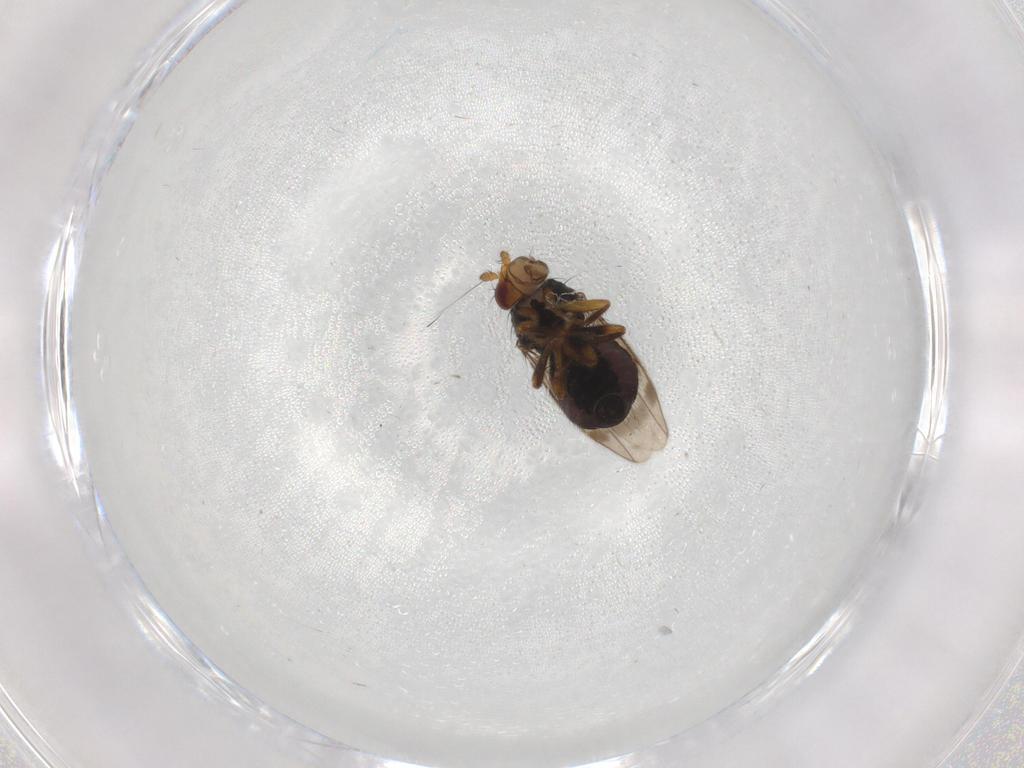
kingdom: Animalia
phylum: Arthropoda
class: Insecta
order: Diptera
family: Sphaeroceridae
